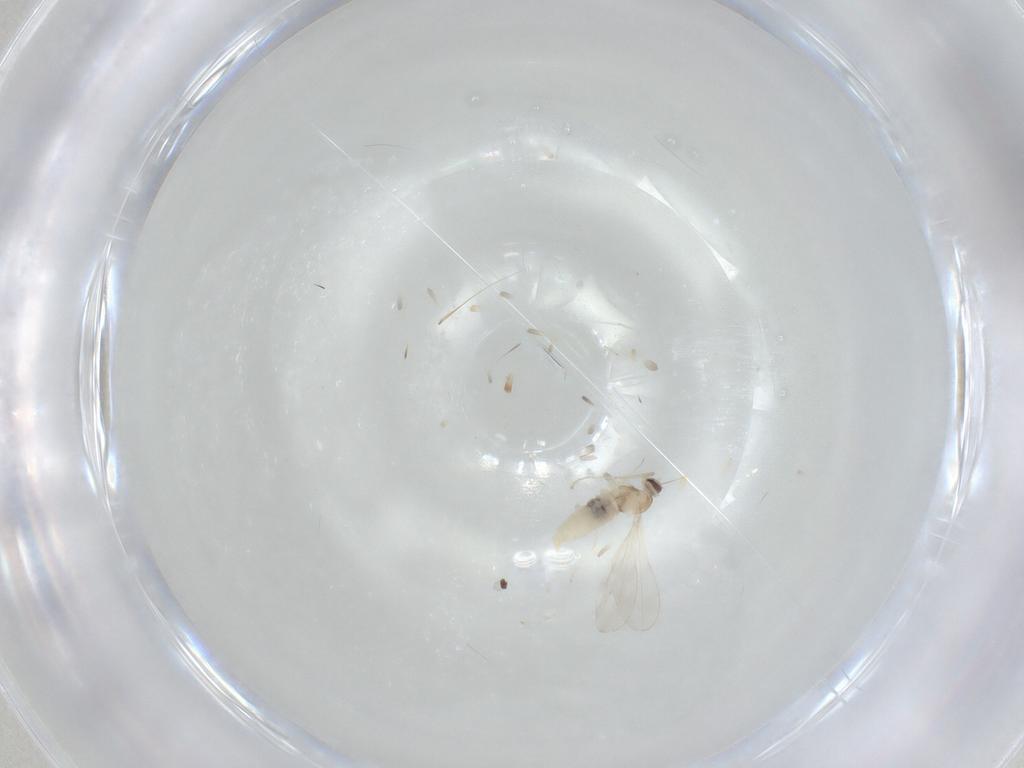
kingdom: Animalia
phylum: Arthropoda
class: Insecta
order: Diptera
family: Cecidomyiidae
